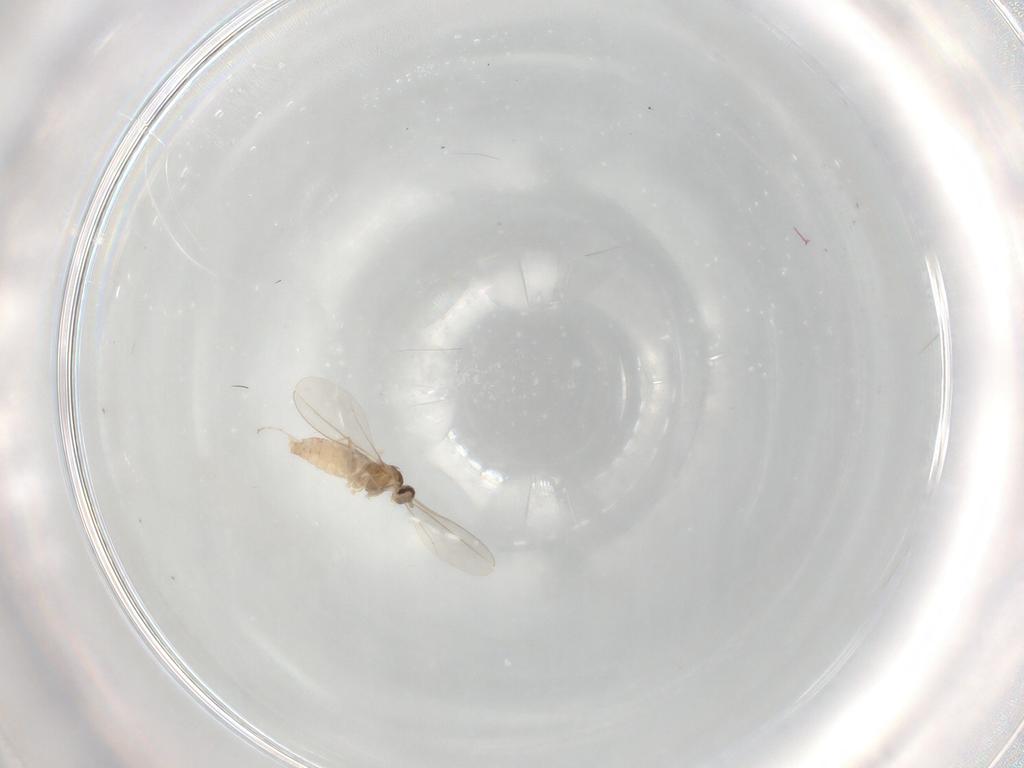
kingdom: Animalia
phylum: Arthropoda
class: Insecta
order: Diptera
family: Cecidomyiidae
